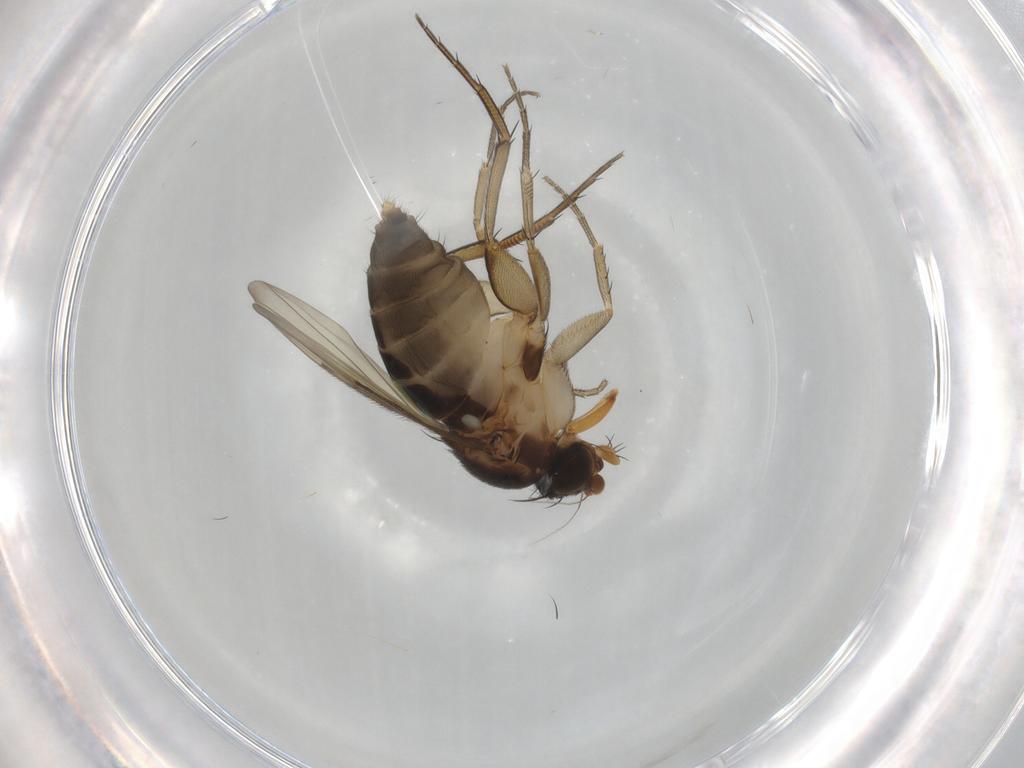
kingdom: Animalia
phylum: Arthropoda
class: Insecta
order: Diptera
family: Phoridae
